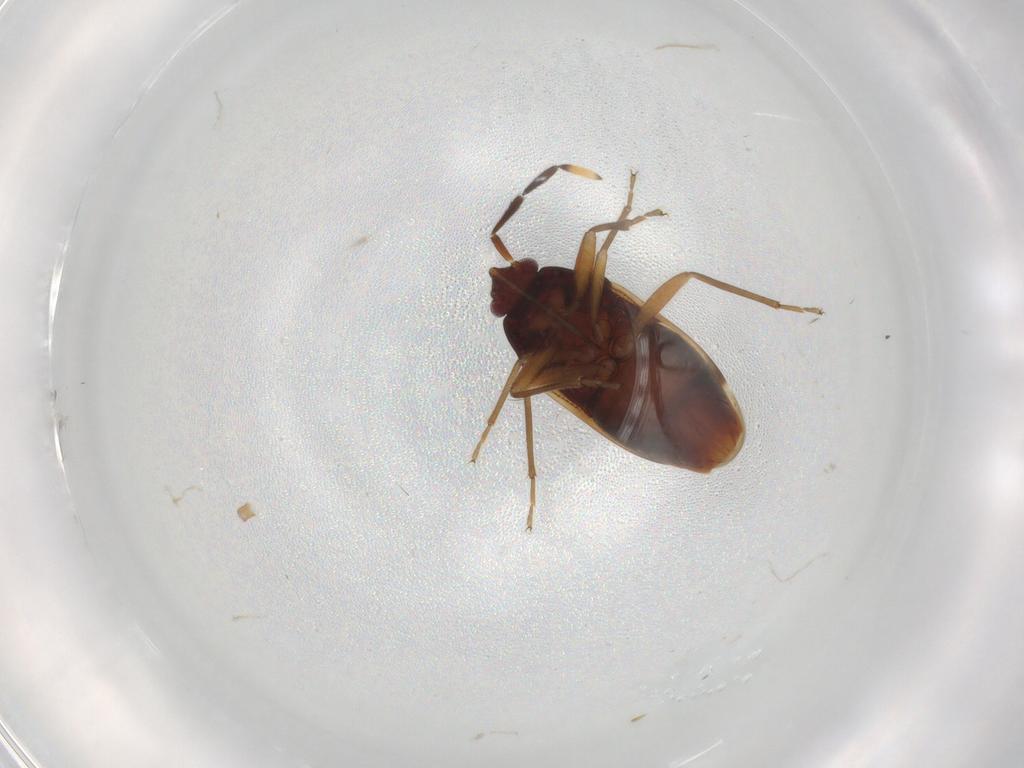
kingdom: Animalia
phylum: Arthropoda
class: Insecta
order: Hemiptera
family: Rhyparochromidae
